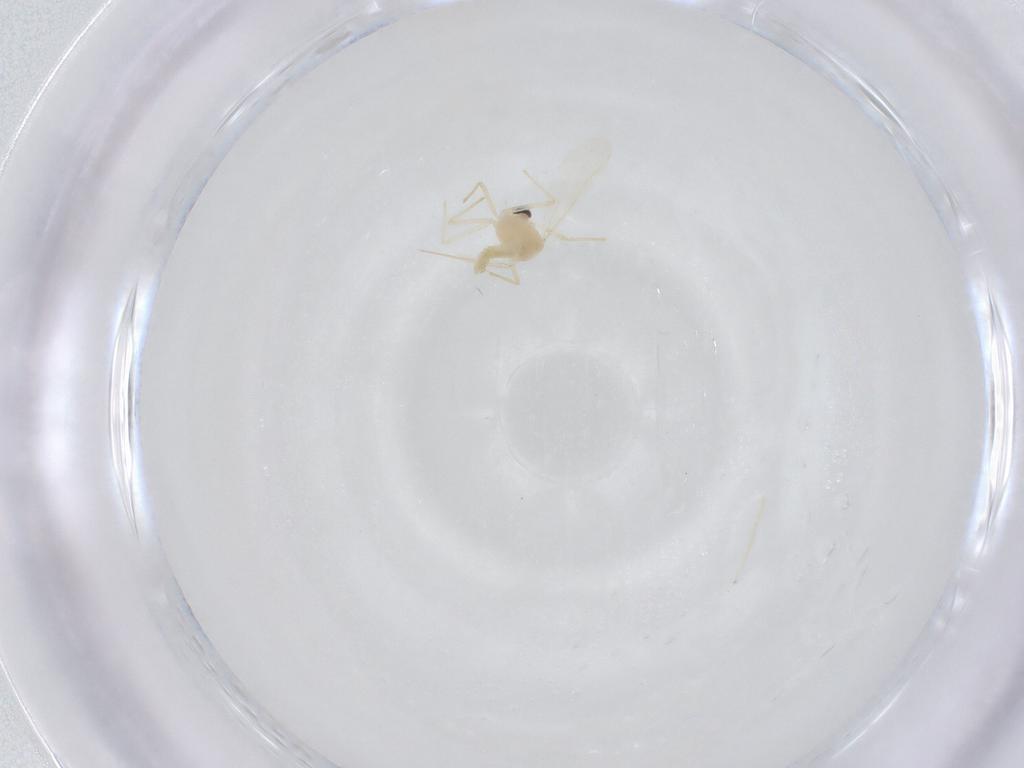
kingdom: Animalia
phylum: Arthropoda
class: Insecta
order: Diptera
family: Chironomidae
